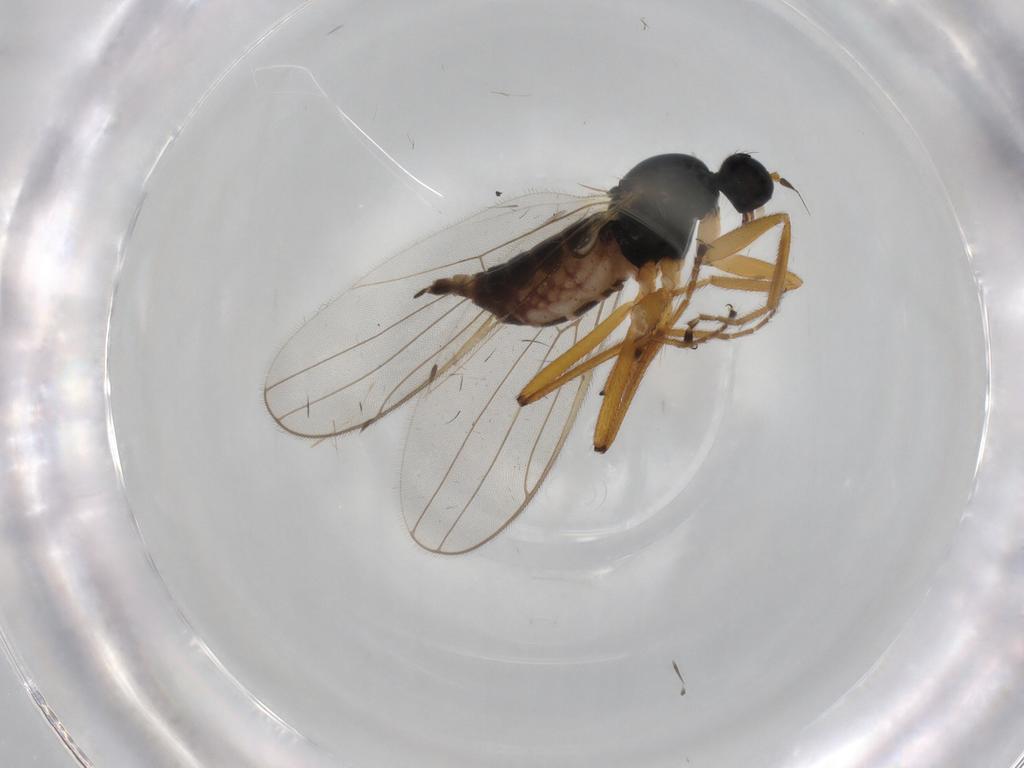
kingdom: Animalia
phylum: Arthropoda
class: Insecta
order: Diptera
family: Hybotidae
